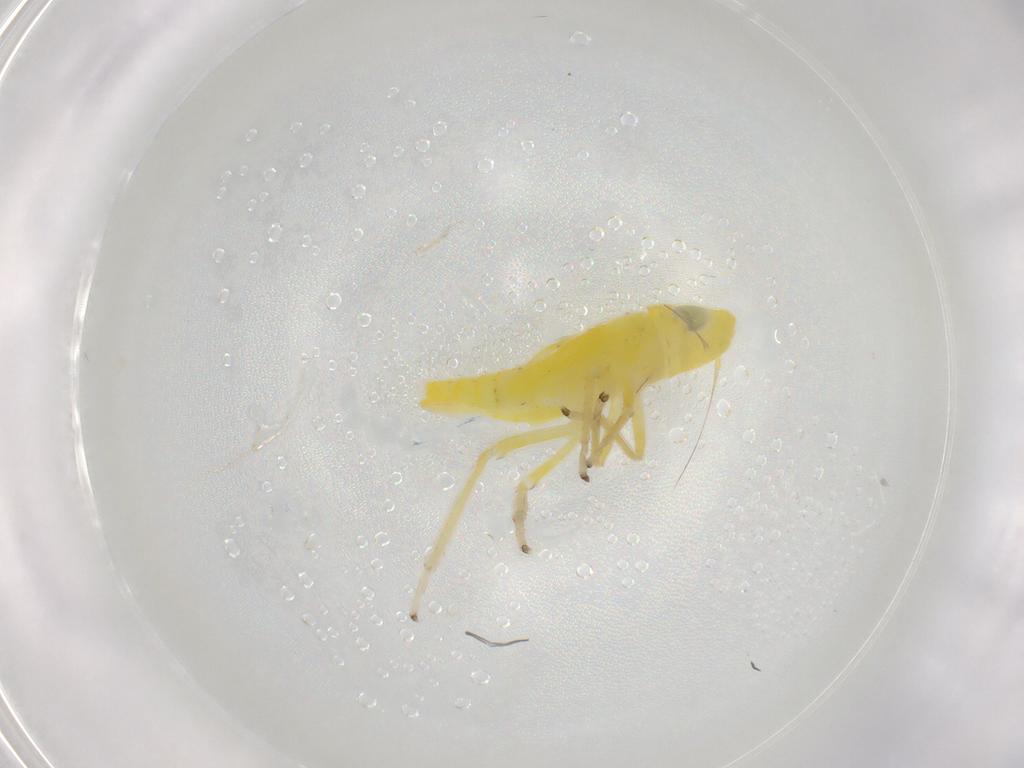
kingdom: Animalia
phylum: Arthropoda
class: Insecta
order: Hemiptera
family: Cicadellidae
